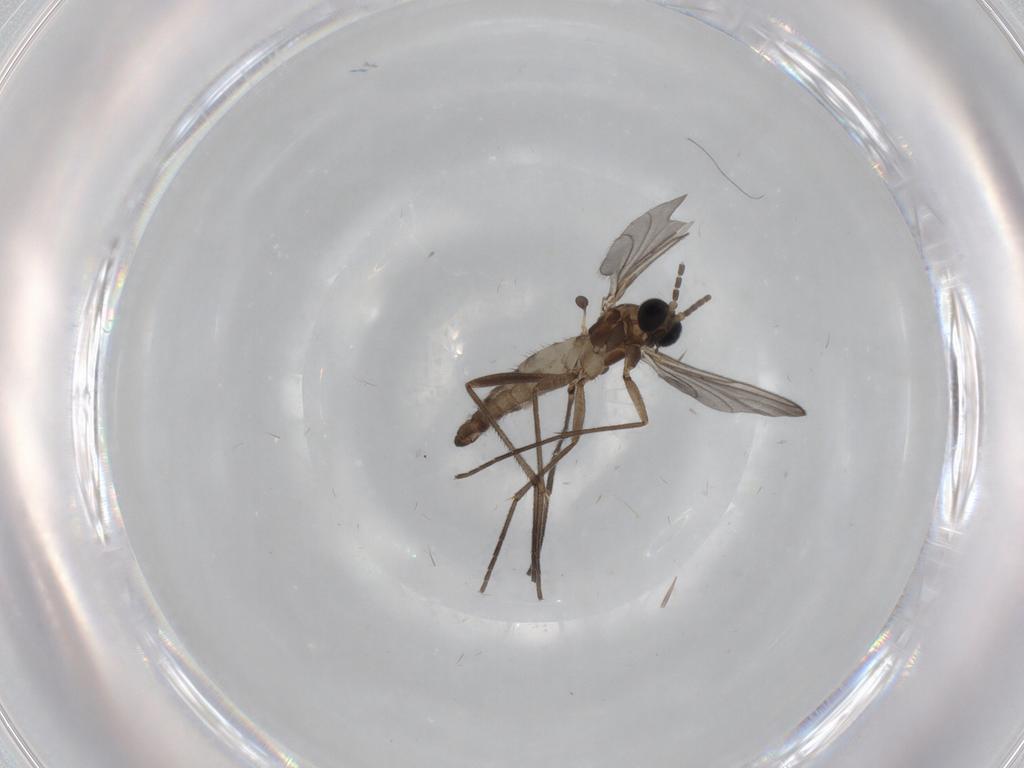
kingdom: Animalia
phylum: Arthropoda
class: Insecta
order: Diptera
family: Sciaridae
